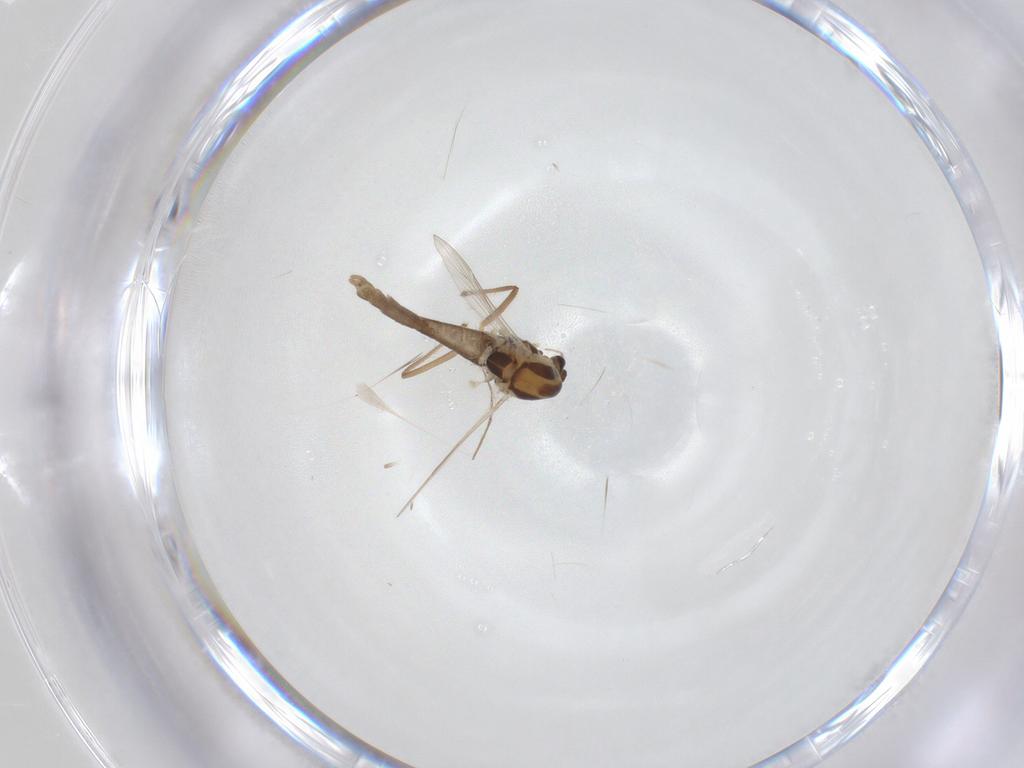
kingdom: Animalia
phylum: Arthropoda
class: Insecta
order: Diptera
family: Chironomidae
